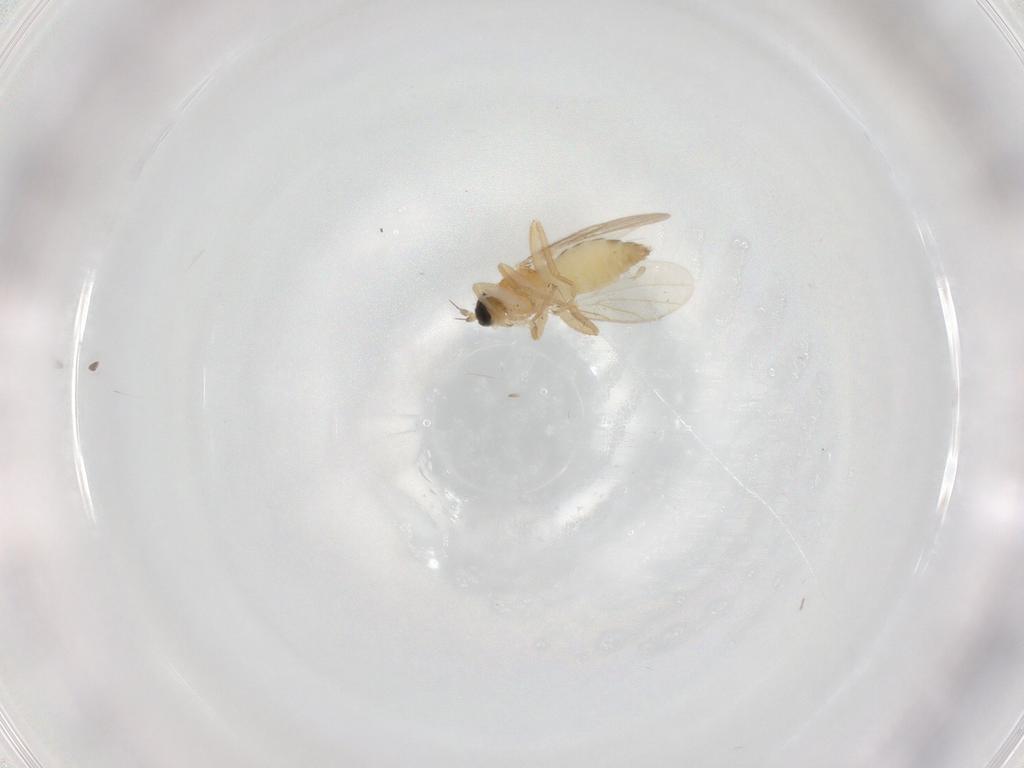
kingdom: Animalia
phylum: Arthropoda
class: Insecta
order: Diptera
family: Hybotidae
